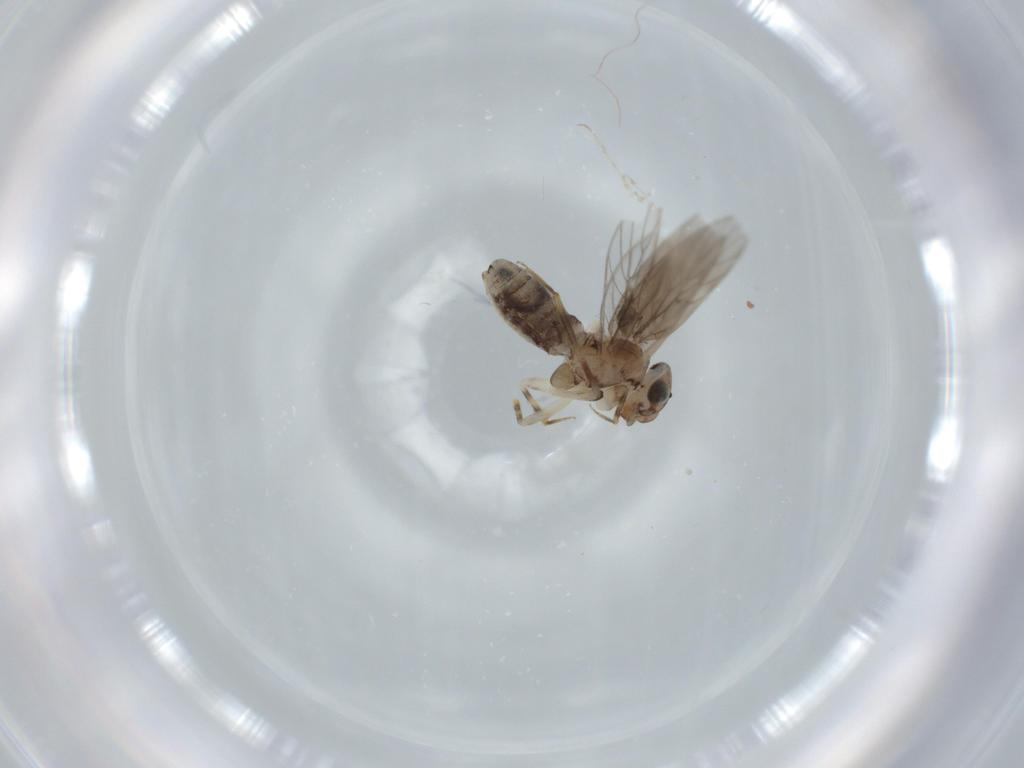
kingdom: Animalia
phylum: Arthropoda
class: Insecta
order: Psocodea
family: Lepidopsocidae
